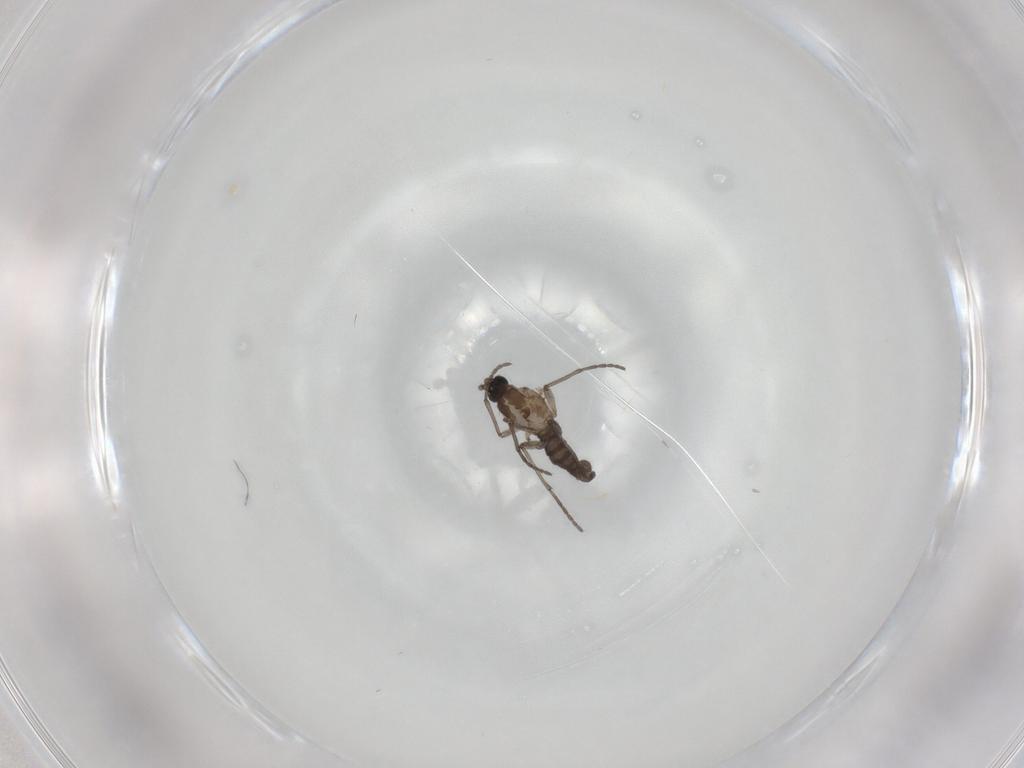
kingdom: Animalia
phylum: Arthropoda
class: Insecta
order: Diptera
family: Sciaridae
